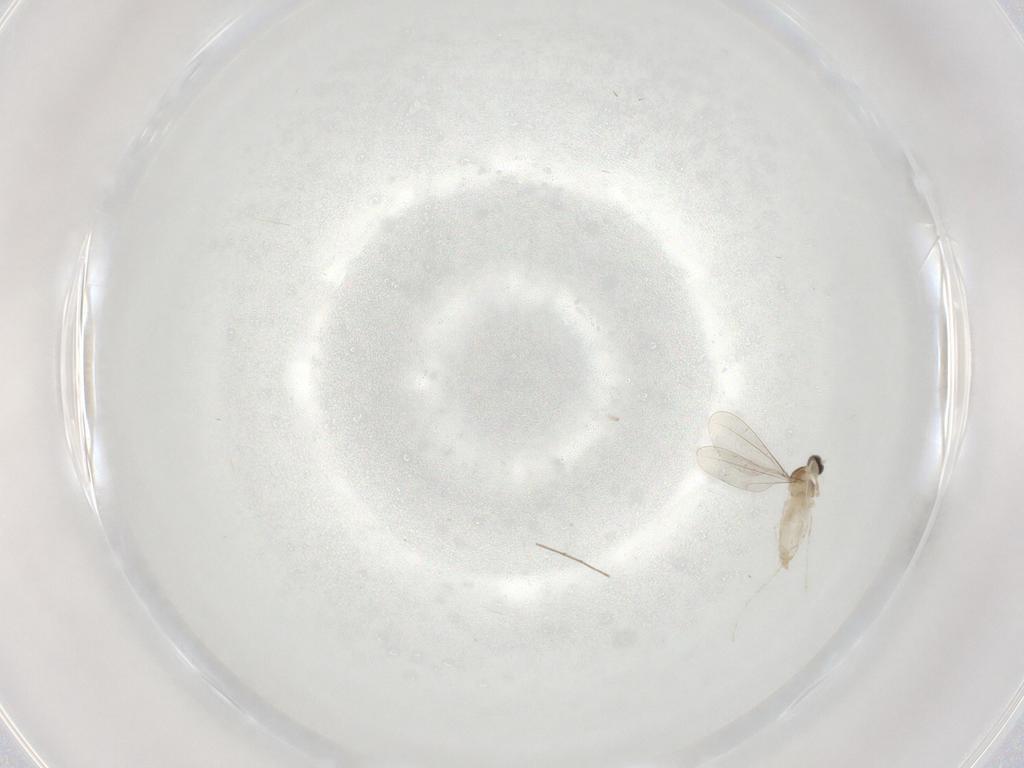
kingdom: Animalia
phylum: Arthropoda
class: Insecta
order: Diptera
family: Cecidomyiidae
